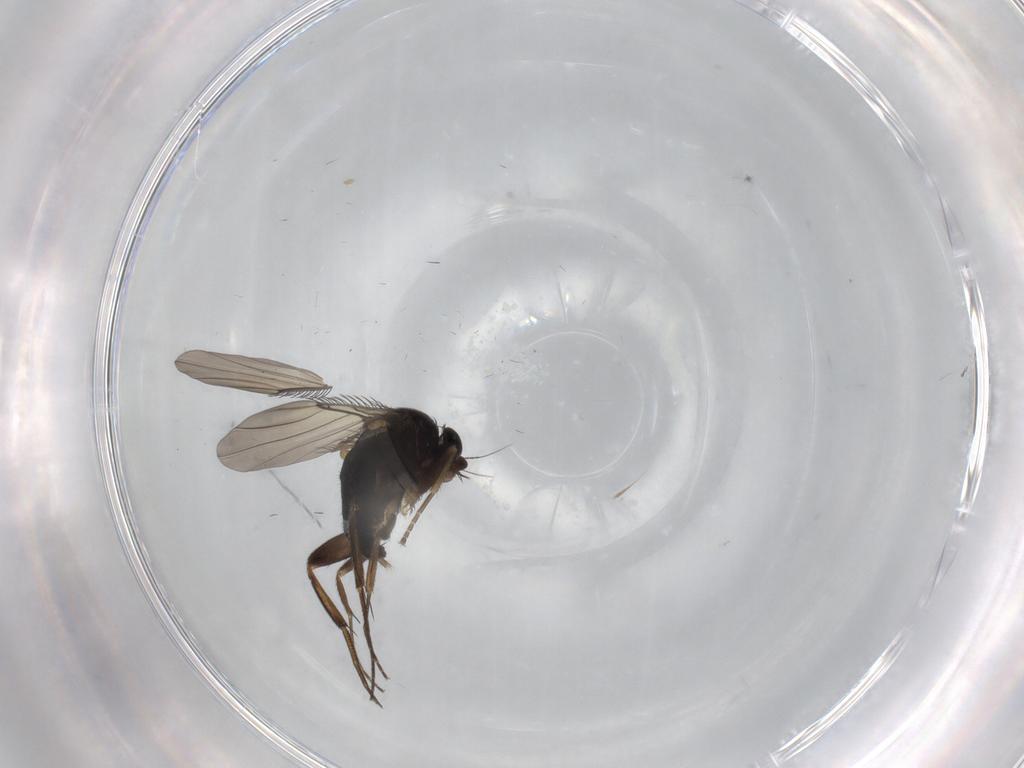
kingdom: Animalia
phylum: Arthropoda
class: Insecta
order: Diptera
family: Phoridae
